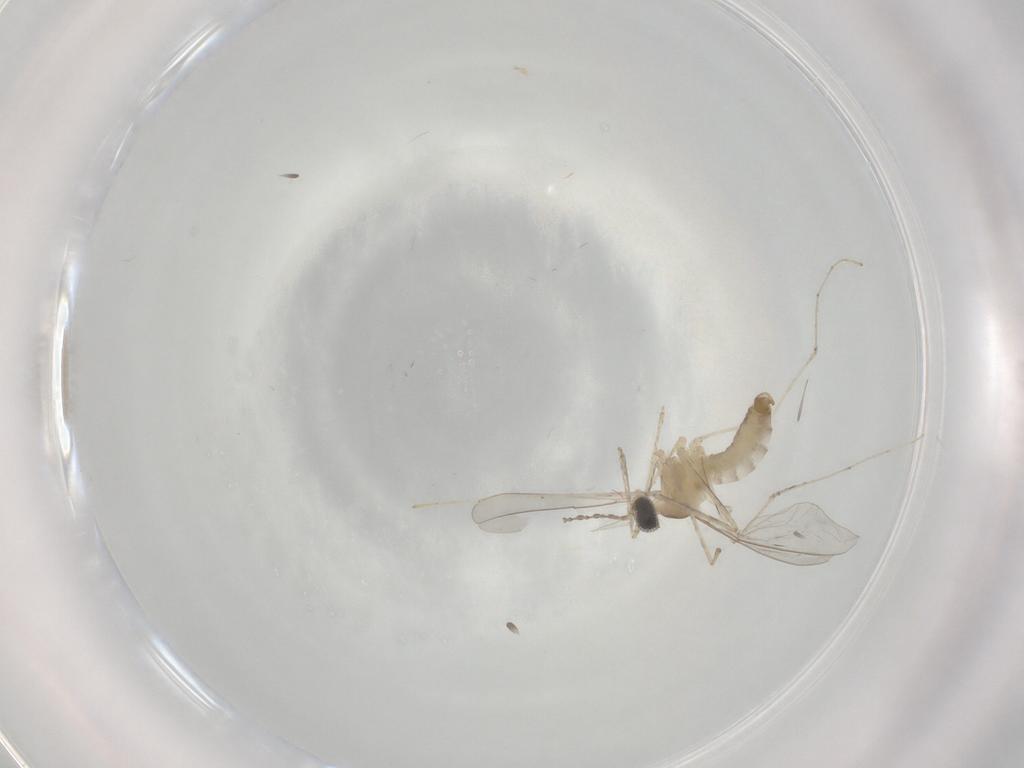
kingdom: Animalia
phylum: Arthropoda
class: Insecta
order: Diptera
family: Cecidomyiidae
